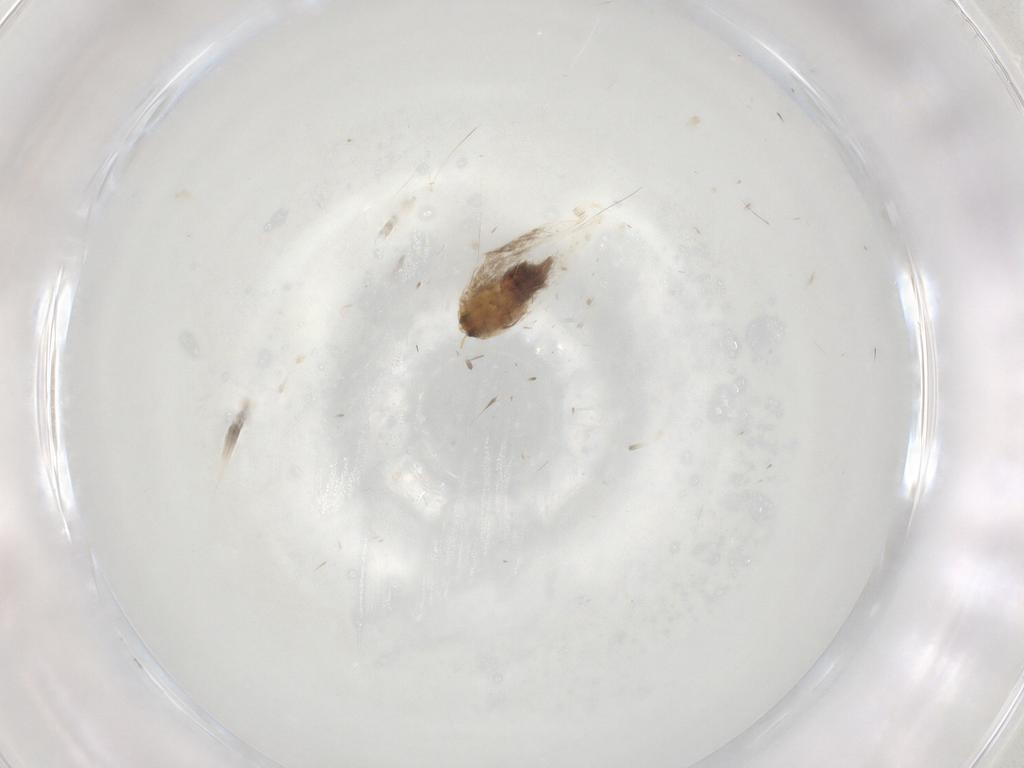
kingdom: Animalia
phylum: Arthropoda
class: Insecta
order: Lepidoptera
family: Nepticulidae
